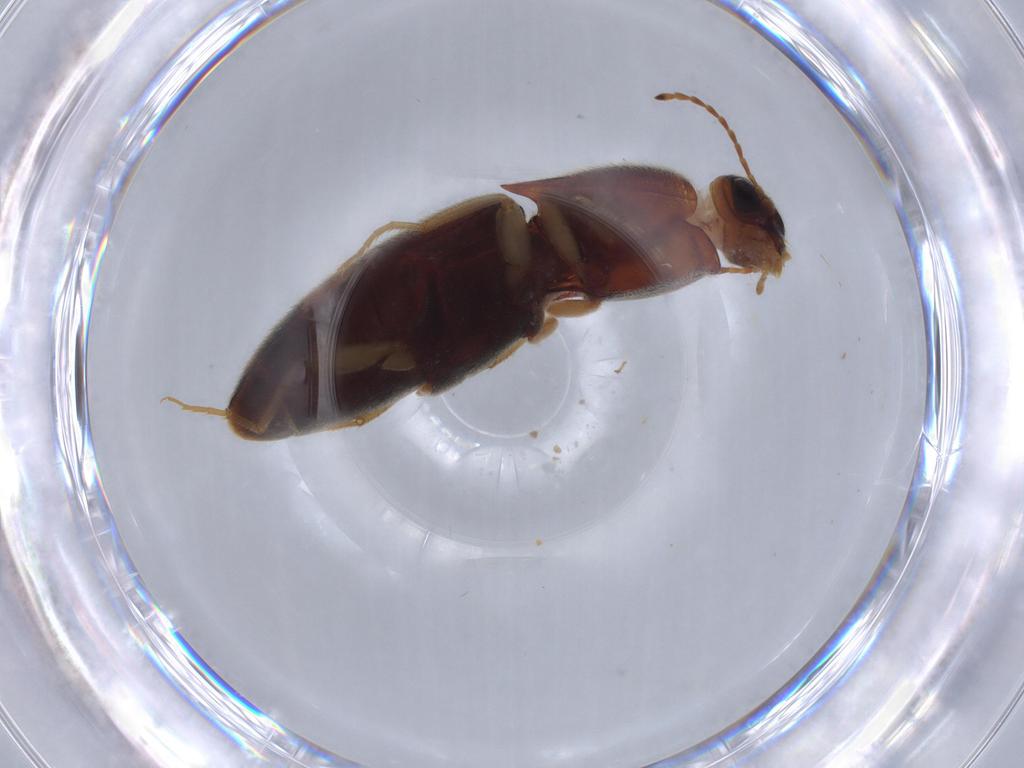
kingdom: Animalia
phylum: Arthropoda
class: Insecta
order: Coleoptera
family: Elateridae
